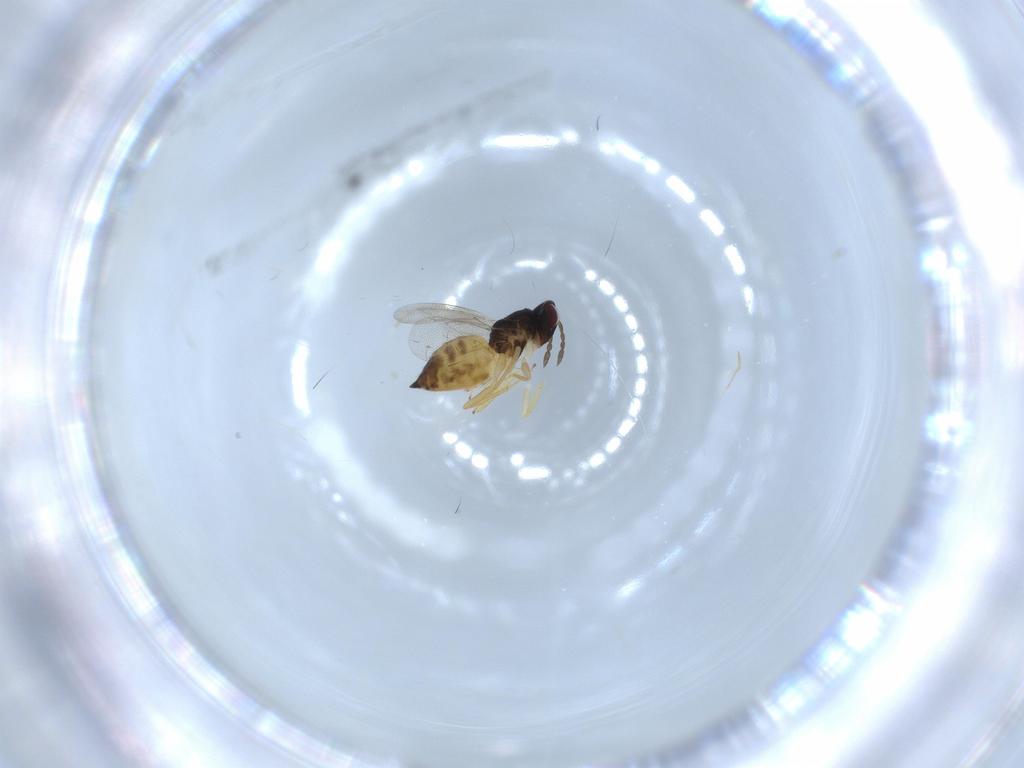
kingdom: Animalia
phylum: Arthropoda
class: Insecta
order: Hymenoptera
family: Eulophidae
